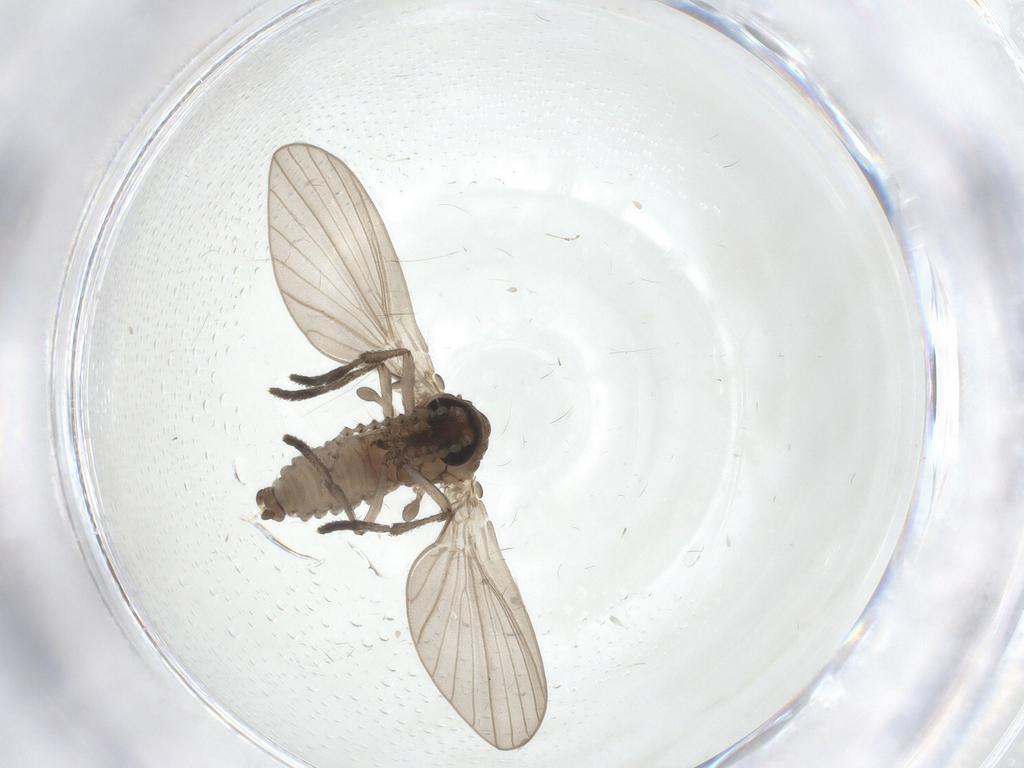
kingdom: Animalia
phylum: Arthropoda
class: Insecta
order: Diptera
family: Psychodidae
